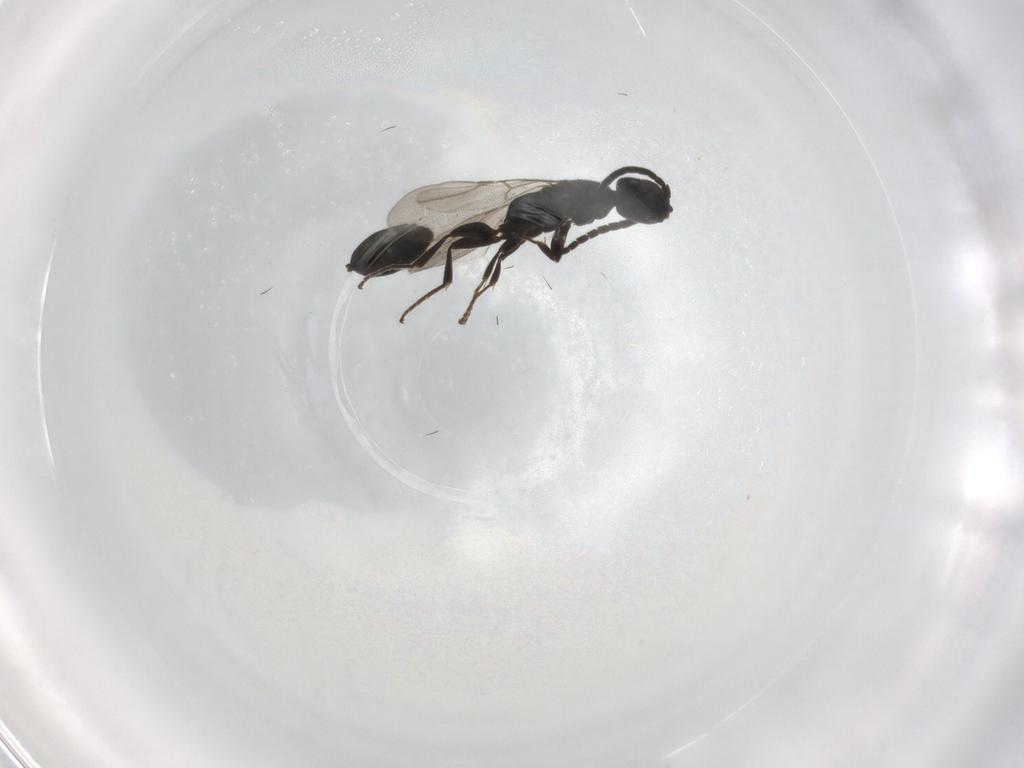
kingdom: Animalia
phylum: Arthropoda
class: Insecta
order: Hymenoptera
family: Bethylidae
